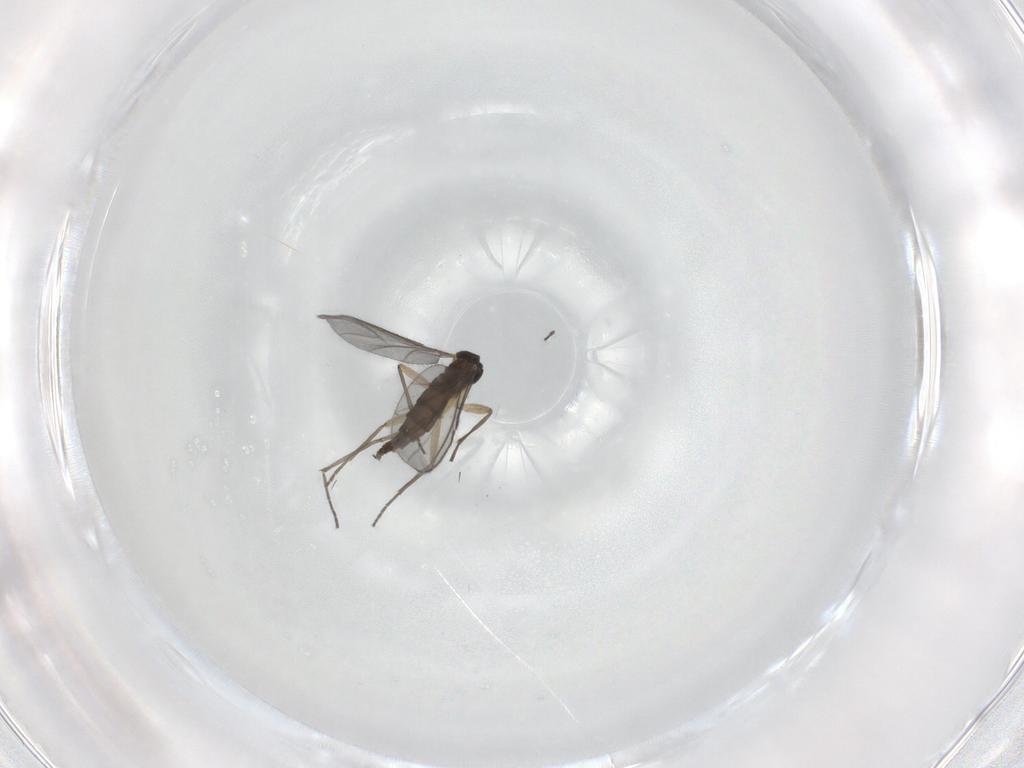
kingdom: Animalia
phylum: Arthropoda
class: Insecta
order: Diptera
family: Sciaridae
